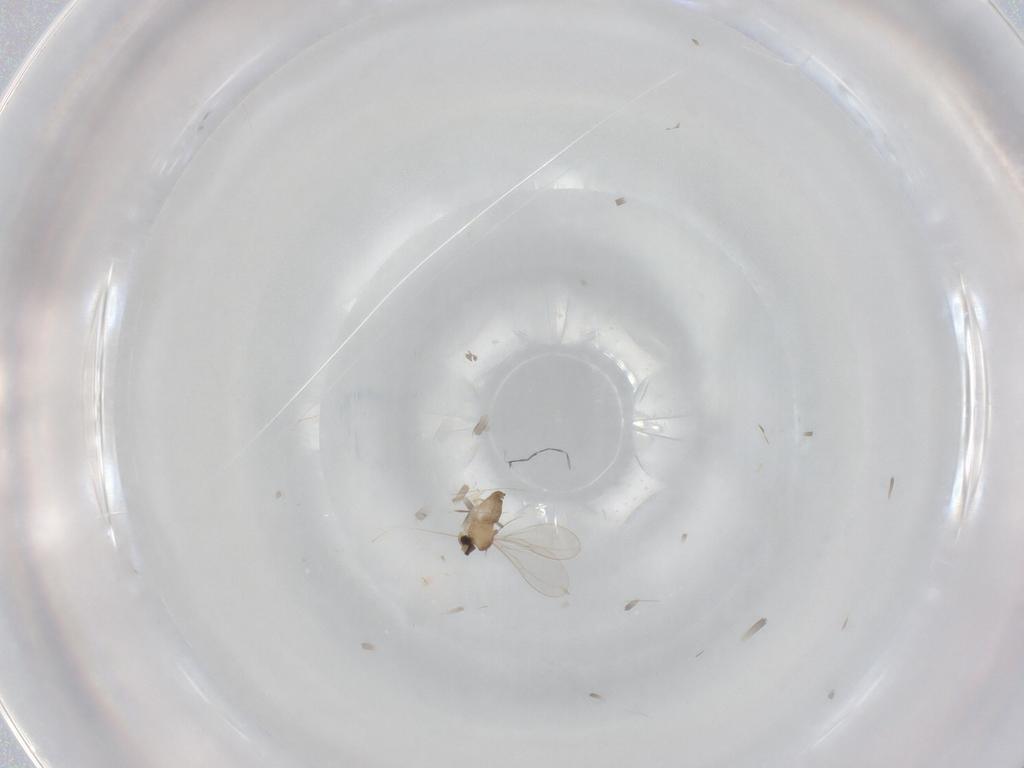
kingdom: Animalia
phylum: Arthropoda
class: Insecta
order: Diptera
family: Cecidomyiidae
